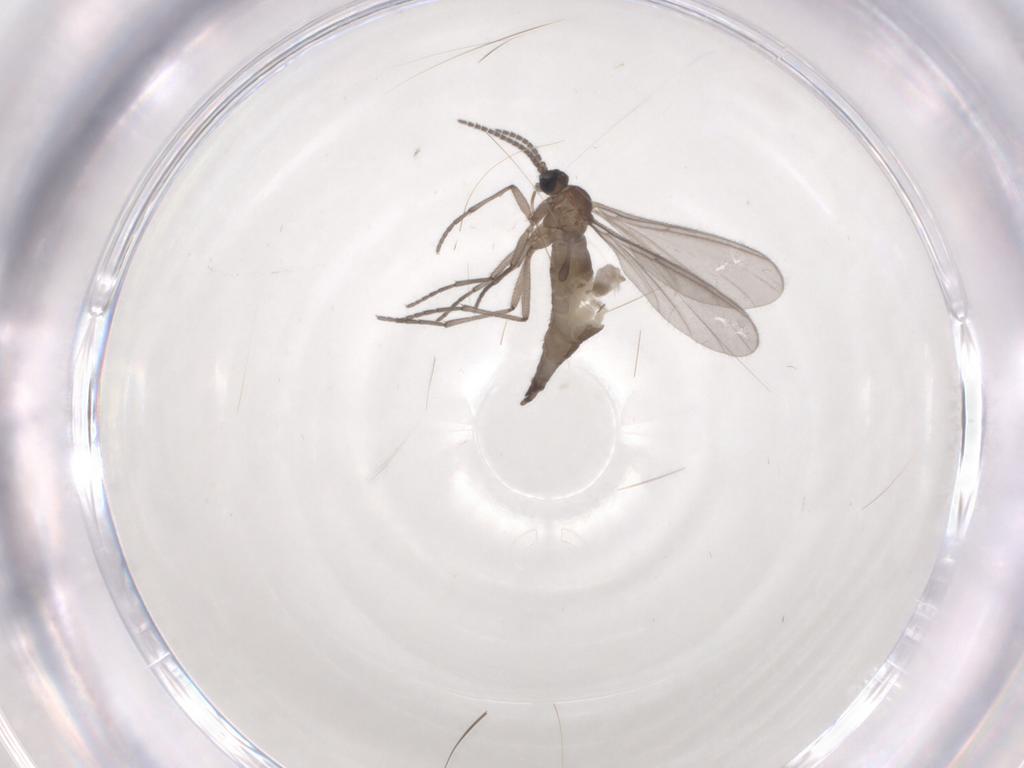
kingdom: Animalia
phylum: Arthropoda
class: Insecta
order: Diptera
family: Sciaridae
